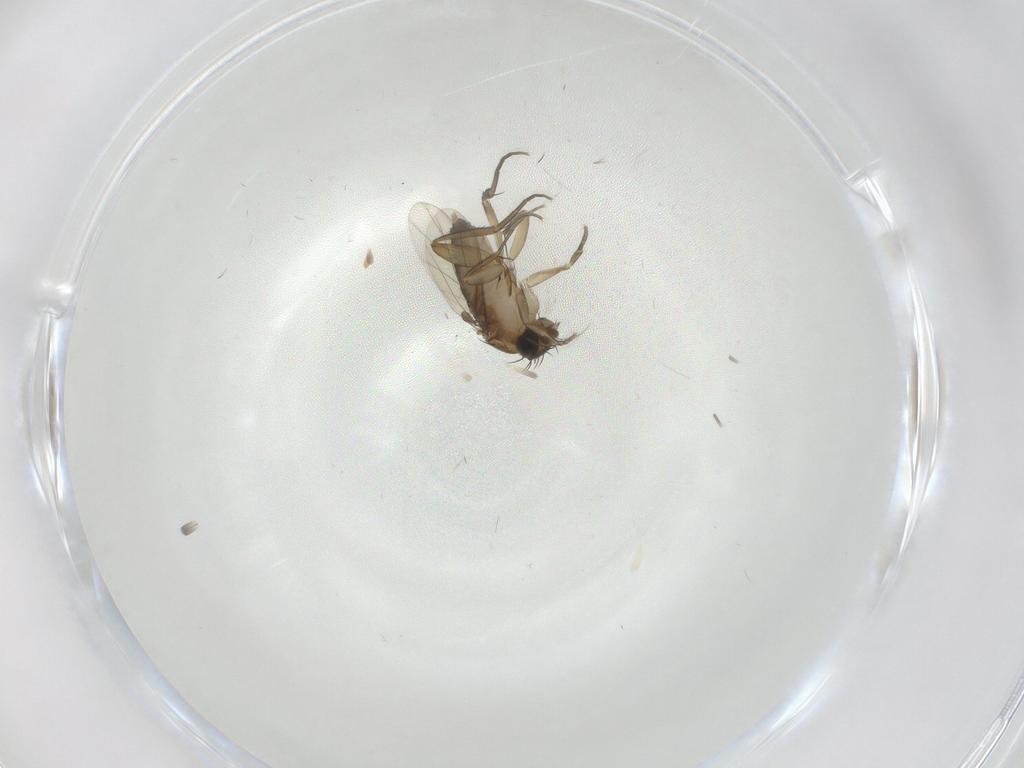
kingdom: Animalia
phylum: Arthropoda
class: Insecta
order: Diptera
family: Phoridae
